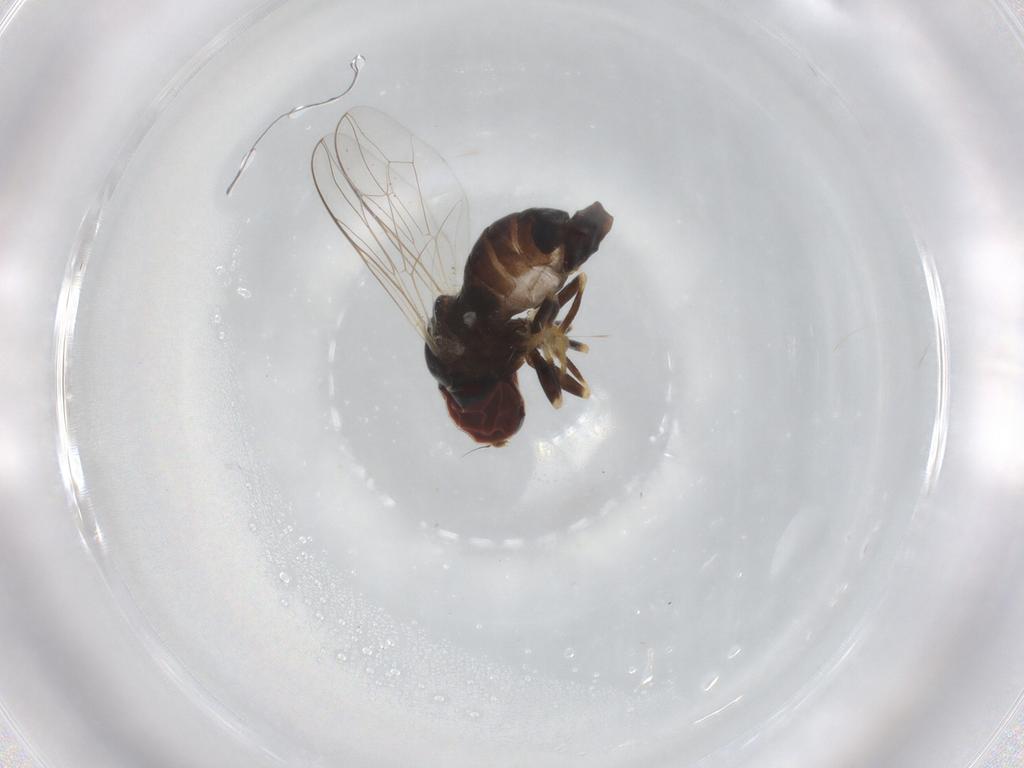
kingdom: Animalia
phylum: Arthropoda
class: Insecta
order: Diptera
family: Pipunculidae
